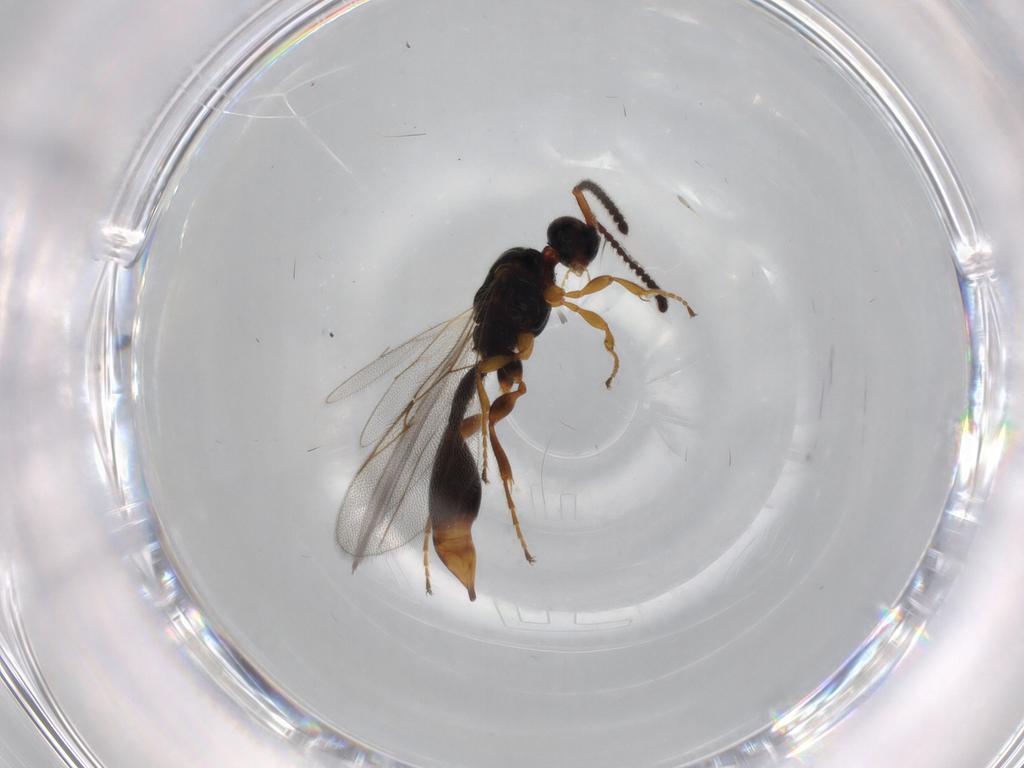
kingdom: Animalia
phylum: Arthropoda
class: Insecta
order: Hymenoptera
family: Diapriidae
